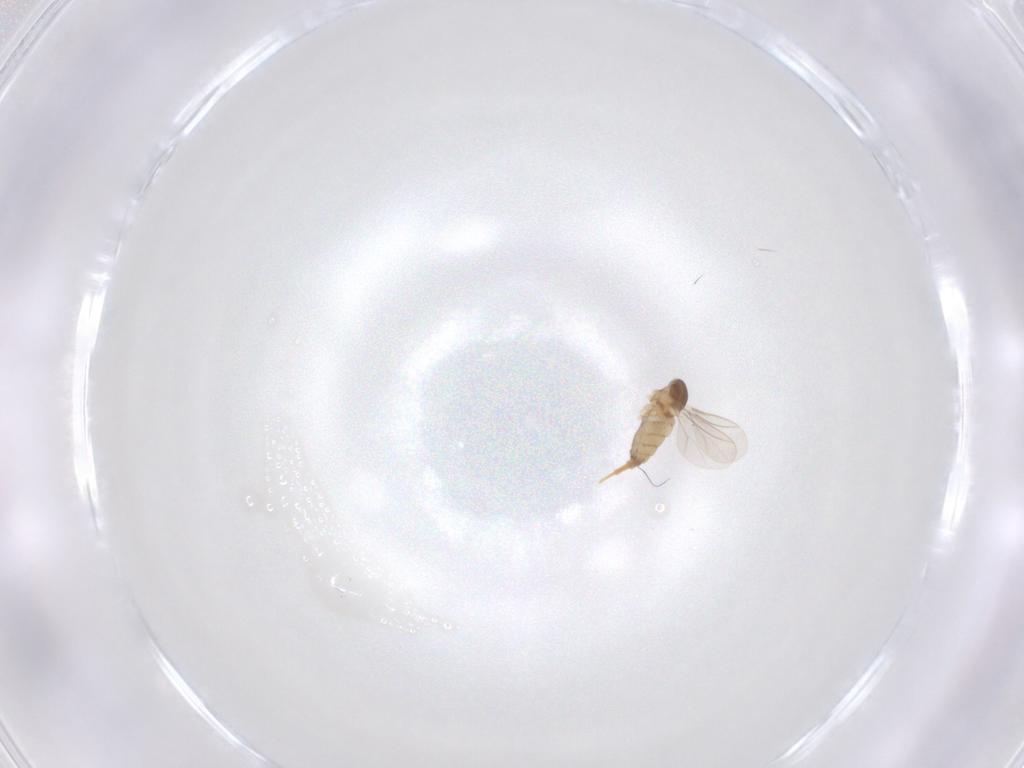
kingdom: Animalia
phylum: Arthropoda
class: Insecta
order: Diptera
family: Cecidomyiidae
